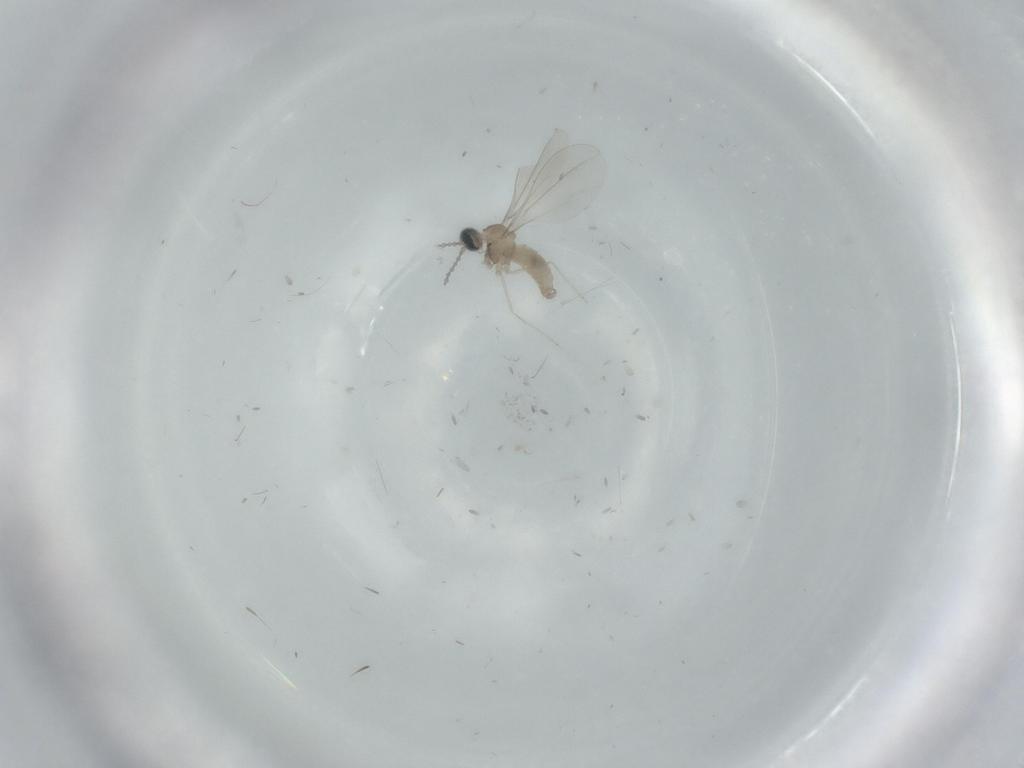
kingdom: Animalia
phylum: Arthropoda
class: Insecta
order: Diptera
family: Cecidomyiidae
